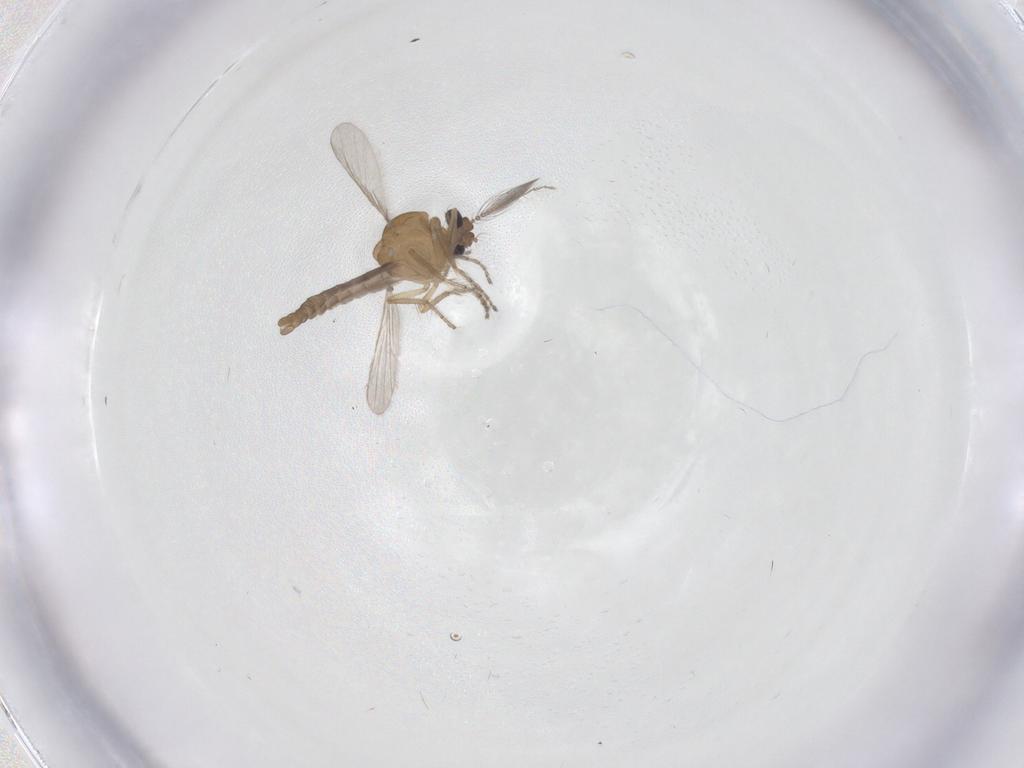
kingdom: Animalia
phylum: Arthropoda
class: Insecta
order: Diptera
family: Ceratopogonidae
